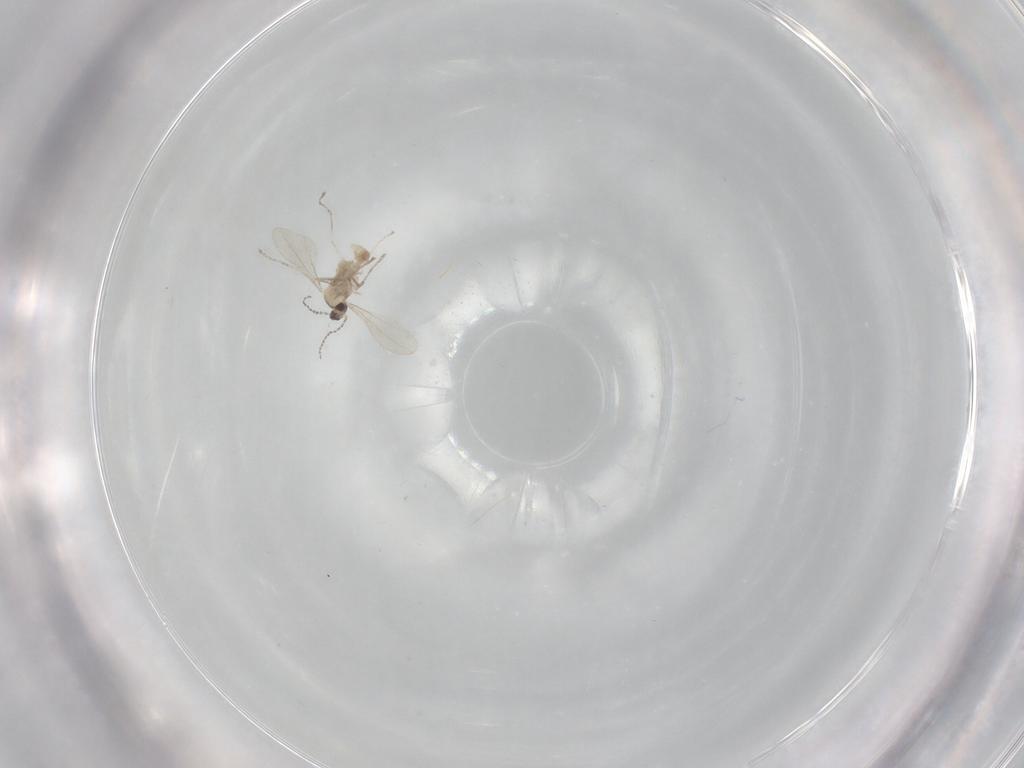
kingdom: Animalia
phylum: Arthropoda
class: Insecta
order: Diptera
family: Cecidomyiidae
